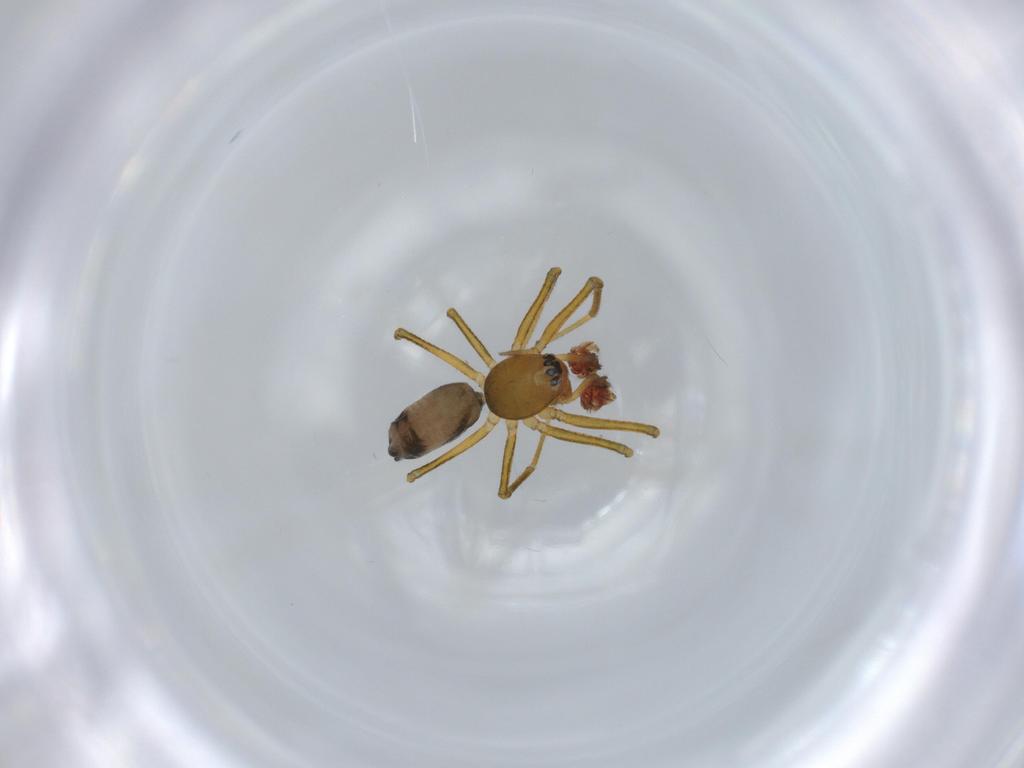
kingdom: Animalia
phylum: Arthropoda
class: Arachnida
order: Araneae
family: Linyphiidae
